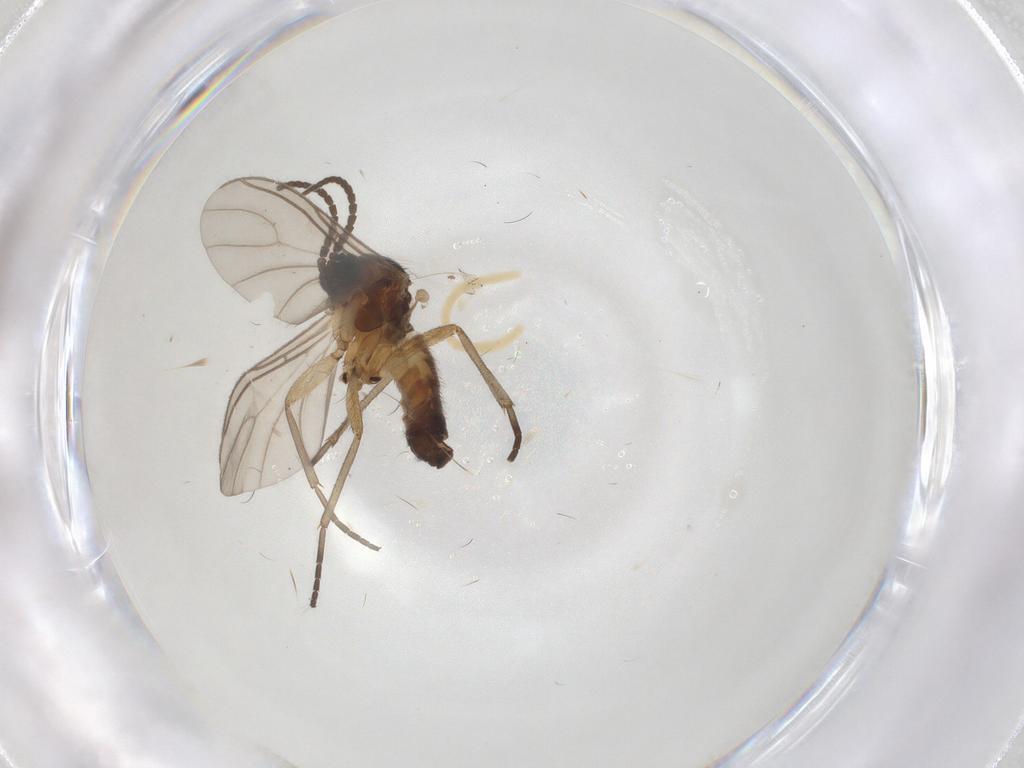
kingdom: Animalia
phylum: Arthropoda
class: Insecta
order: Diptera
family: Sciaridae
